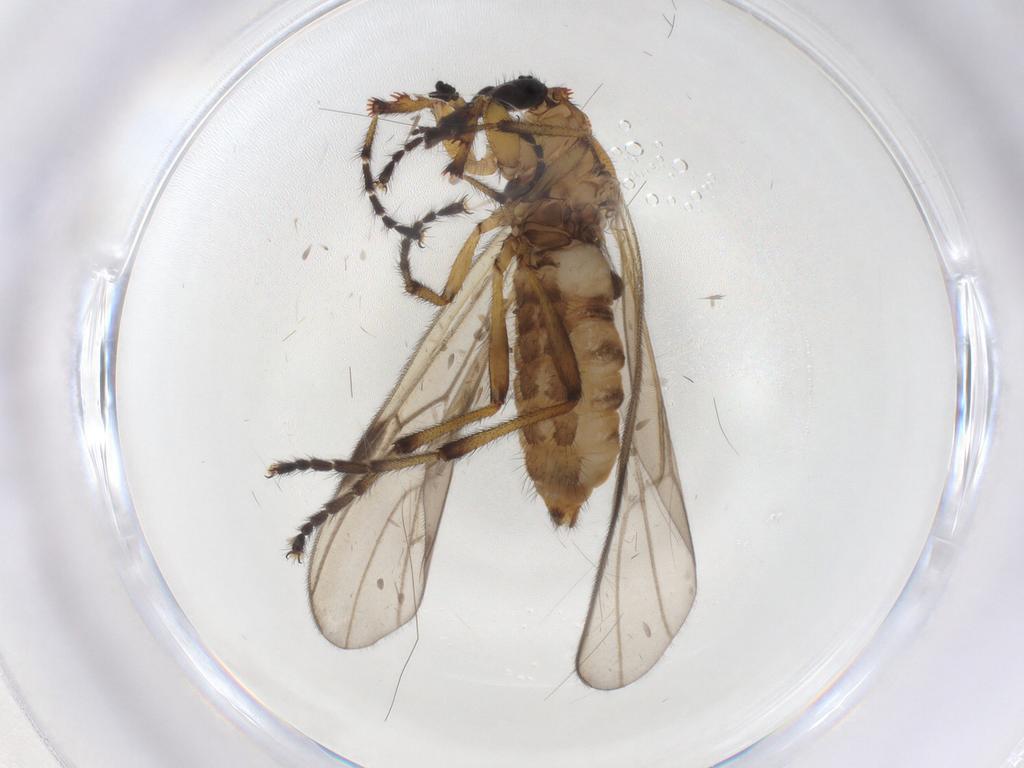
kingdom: Animalia
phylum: Arthropoda
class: Insecta
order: Diptera
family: Bibionidae
